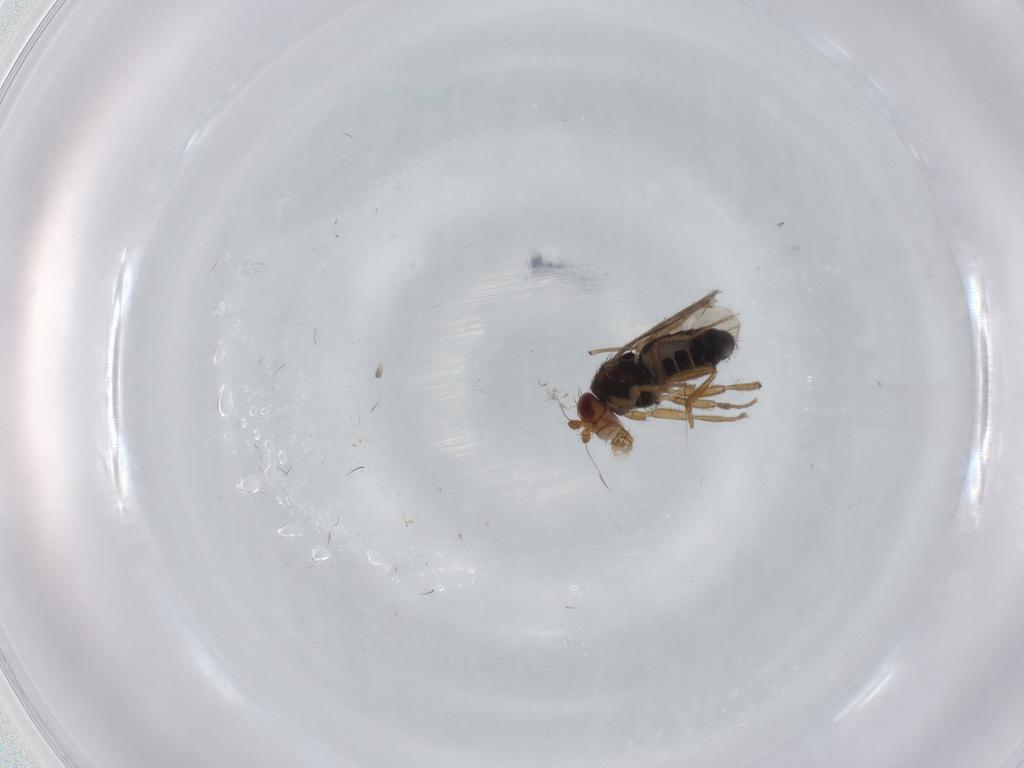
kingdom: Animalia
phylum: Arthropoda
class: Insecta
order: Diptera
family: Sphaeroceridae
